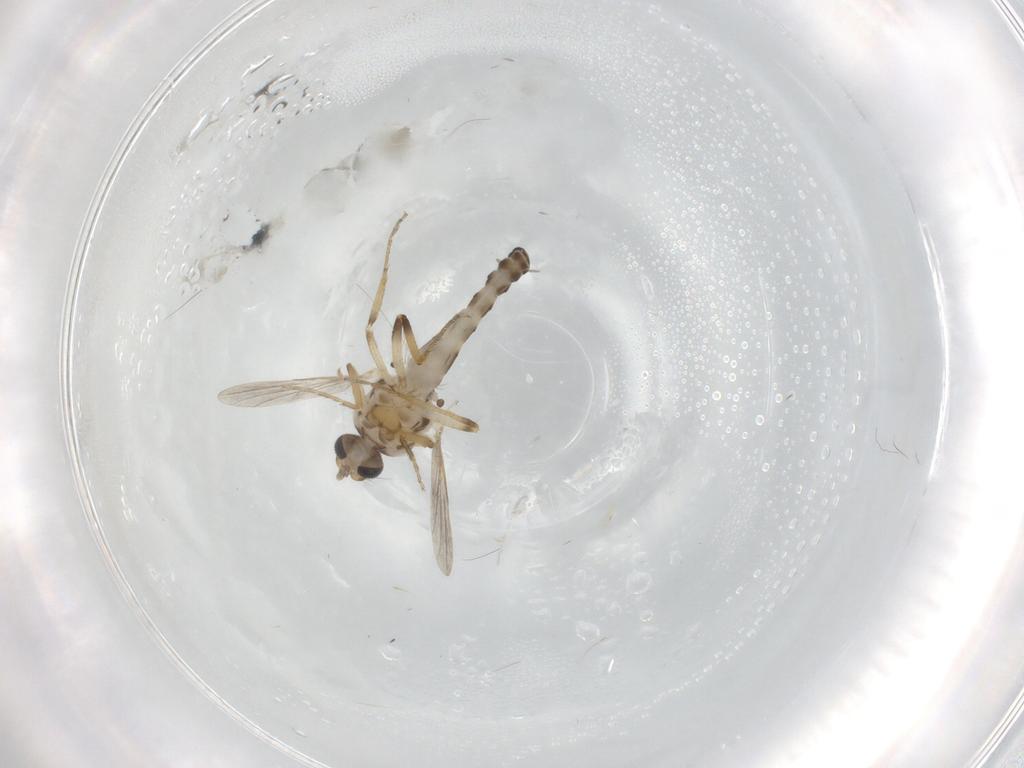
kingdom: Animalia
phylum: Arthropoda
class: Insecta
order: Diptera
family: Ceratopogonidae
